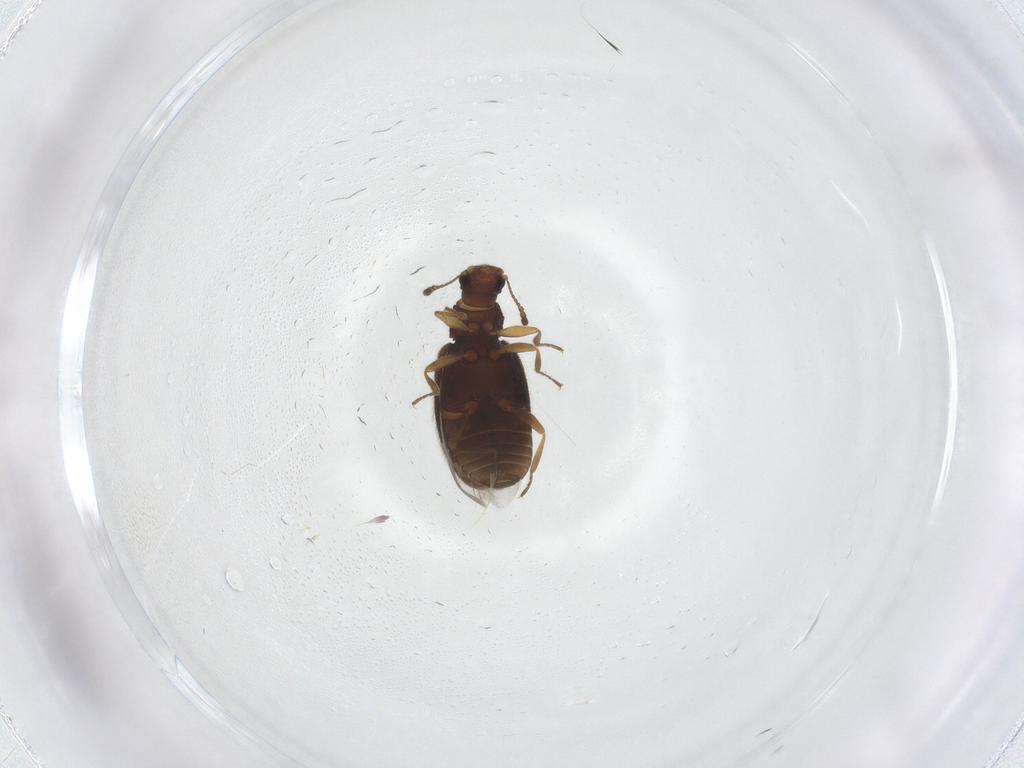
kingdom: Animalia
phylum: Arthropoda
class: Insecta
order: Coleoptera
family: Latridiidae
